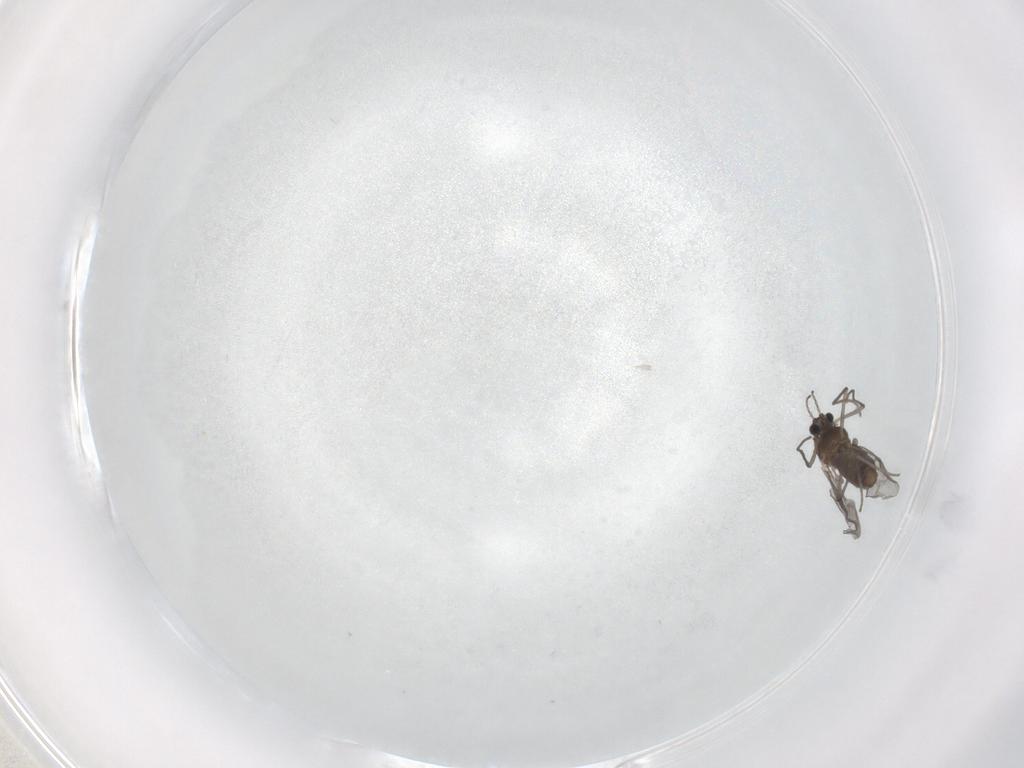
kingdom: Animalia
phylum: Arthropoda
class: Insecta
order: Diptera
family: Chironomidae
